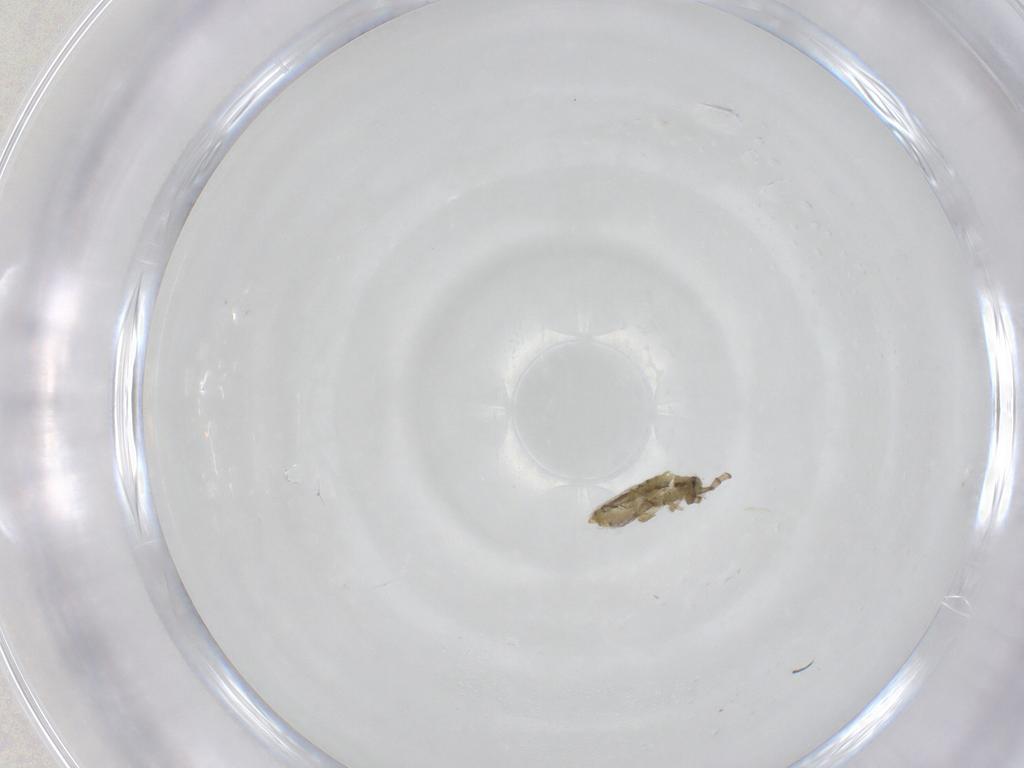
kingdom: Animalia
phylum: Arthropoda
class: Collembola
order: Entomobryomorpha
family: Entomobryidae
